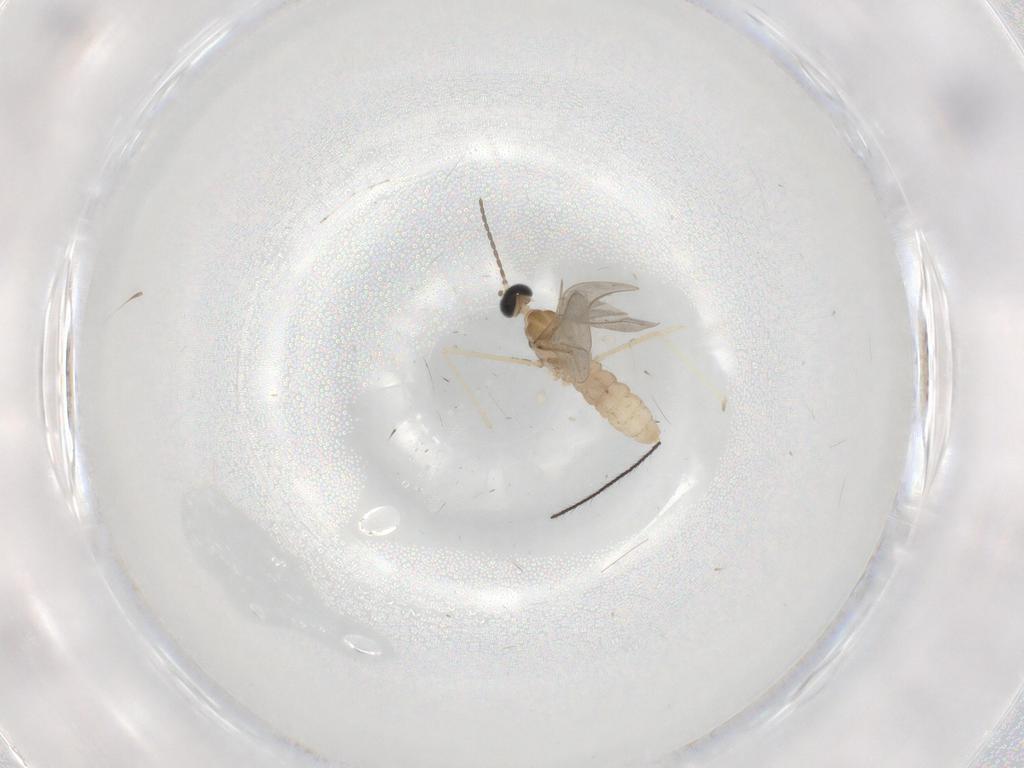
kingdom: Animalia
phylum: Arthropoda
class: Insecta
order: Diptera
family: Cecidomyiidae
